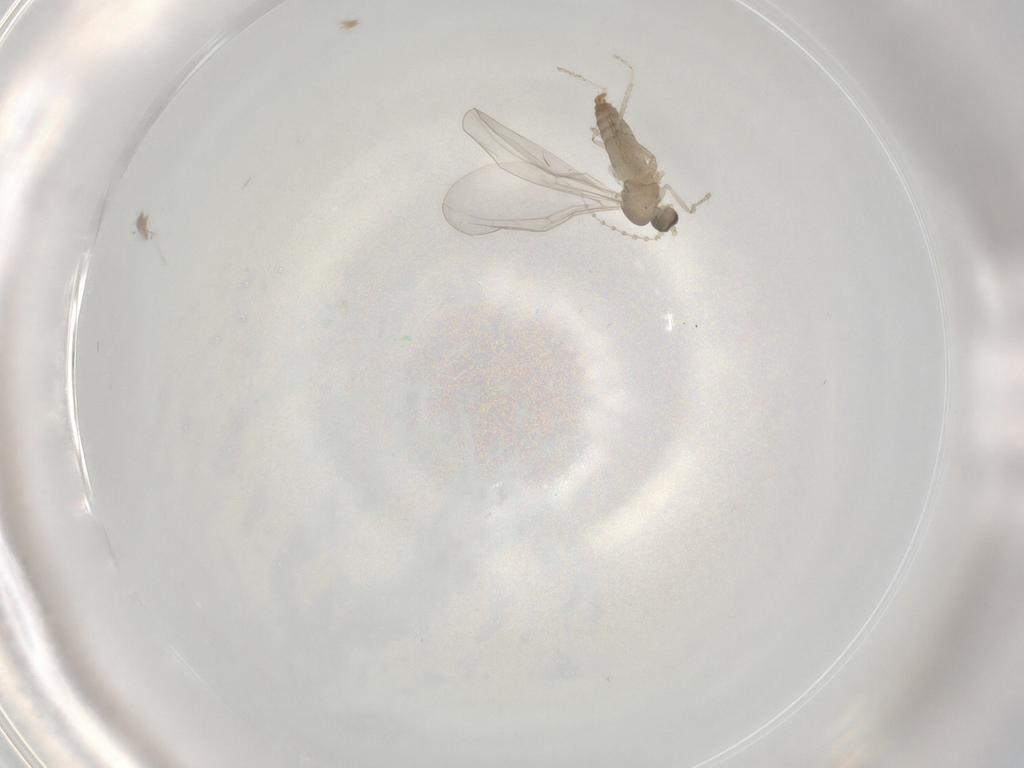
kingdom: Animalia
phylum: Arthropoda
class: Insecta
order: Diptera
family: Cecidomyiidae
